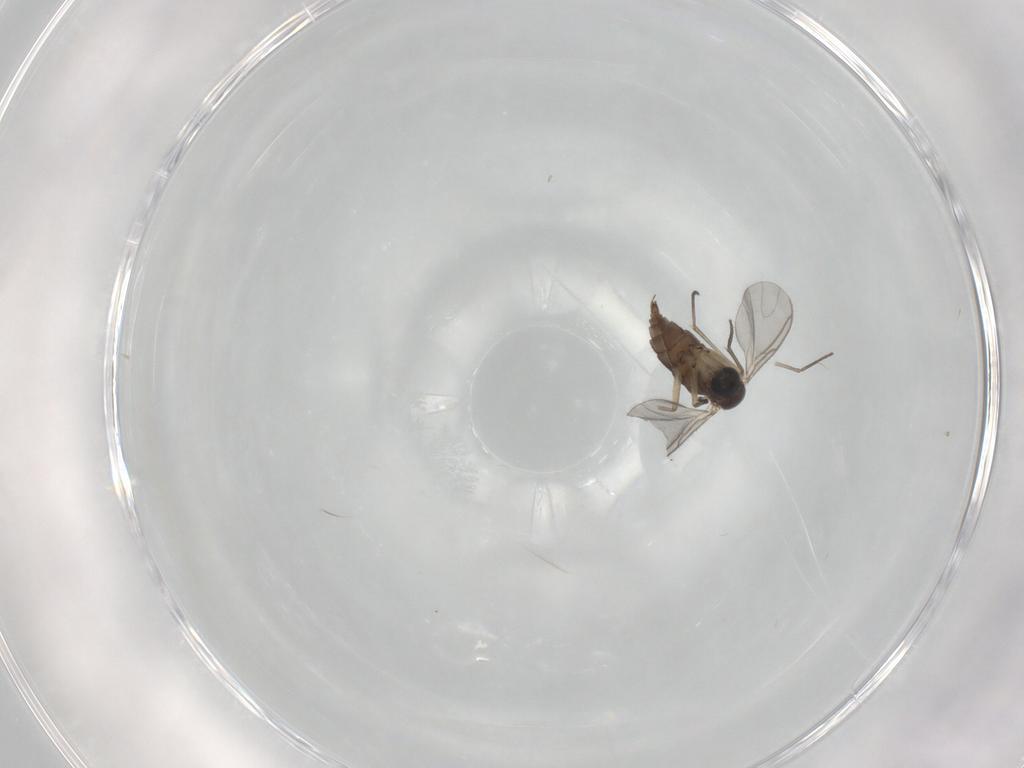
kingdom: Animalia
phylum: Arthropoda
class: Insecta
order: Diptera
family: Sciaridae
